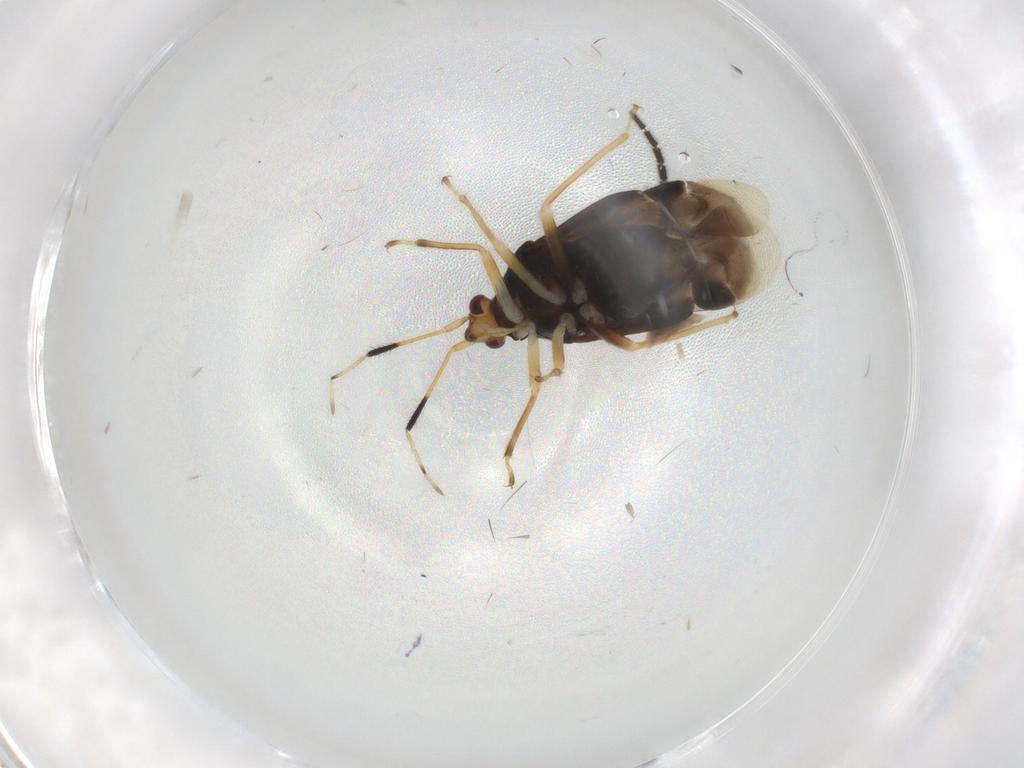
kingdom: Animalia
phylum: Arthropoda
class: Insecta
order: Hemiptera
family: Miridae
